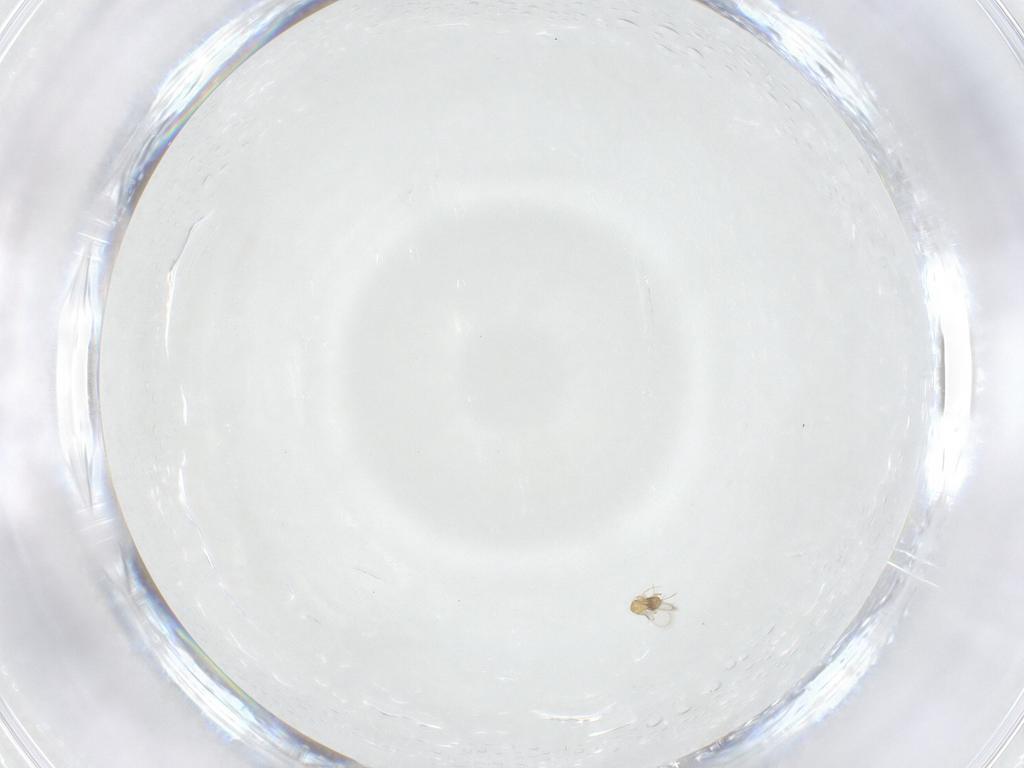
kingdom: Animalia
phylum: Arthropoda
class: Insecta
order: Hymenoptera
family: Trichogrammatidae
